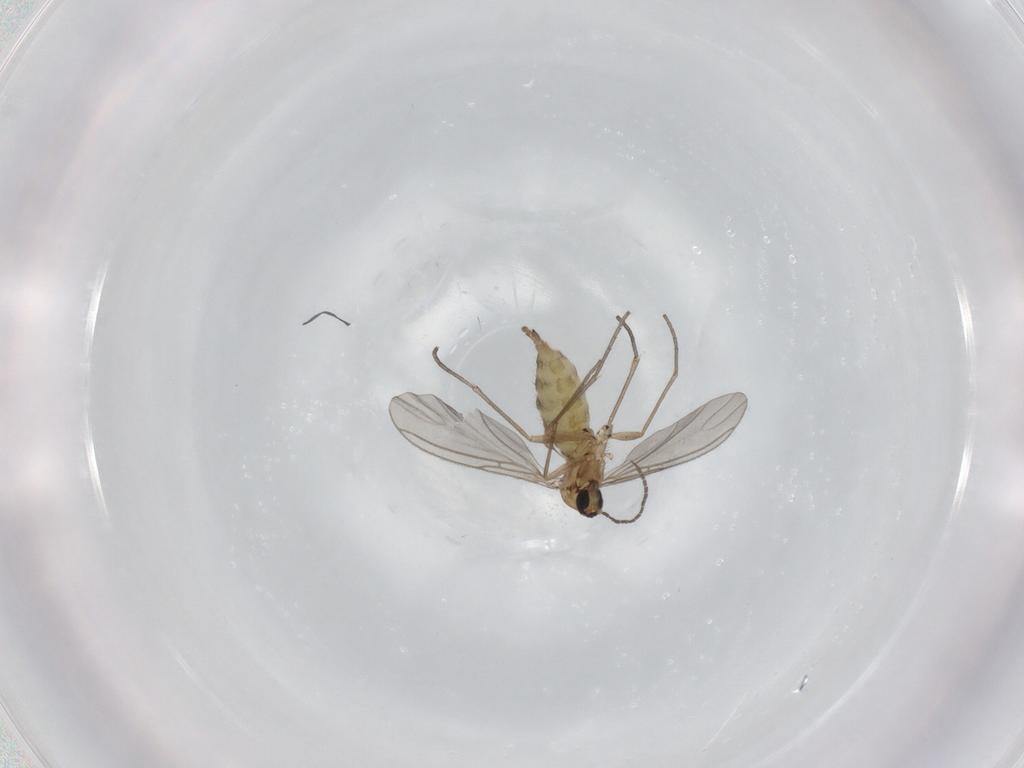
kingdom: Animalia
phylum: Arthropoda
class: Insecta
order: Diptera
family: Sciaridae
